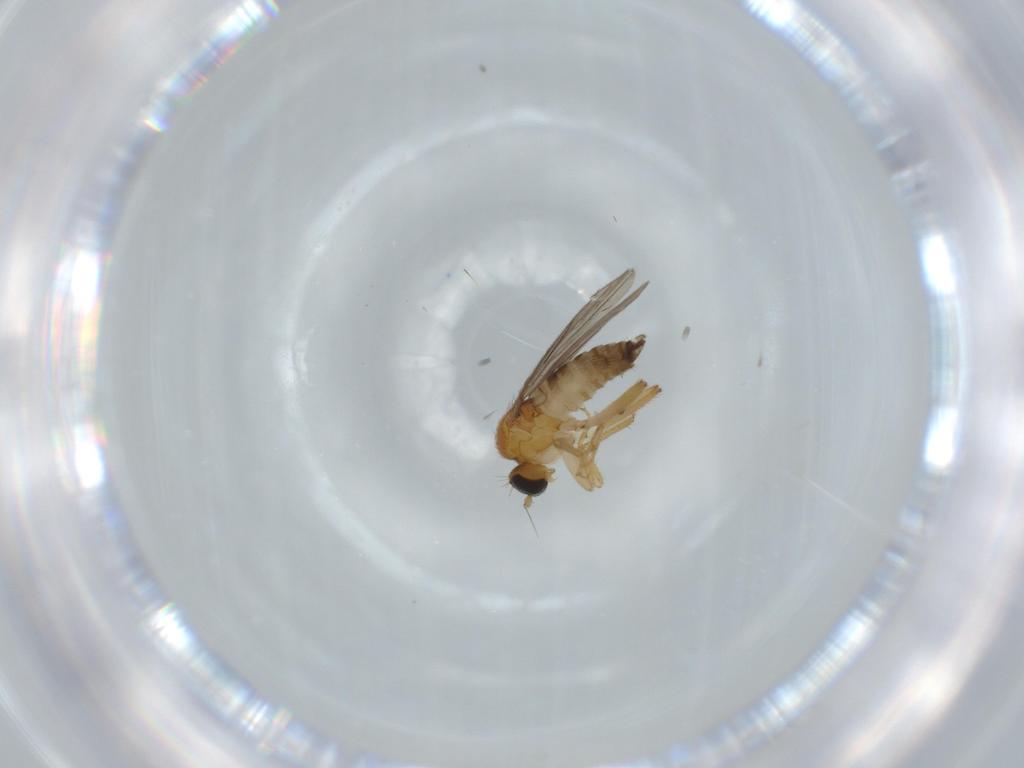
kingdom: Animalia
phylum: Arthropoda
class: Insecta
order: Diptera
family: Hybotidae
